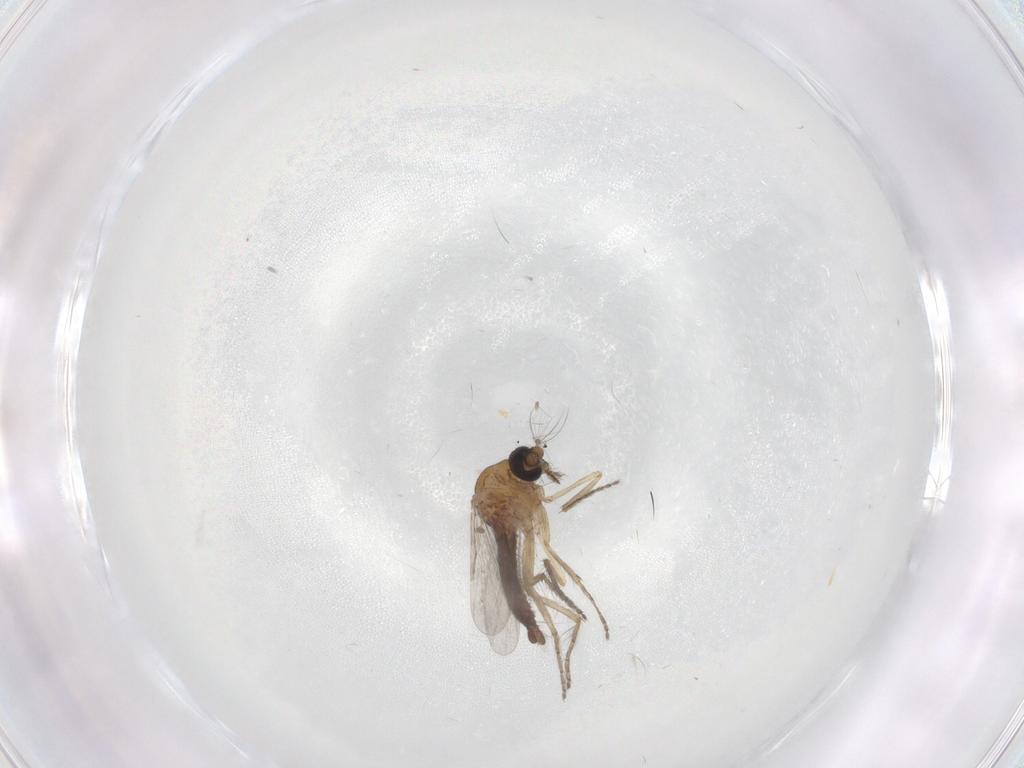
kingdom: Animalia
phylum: Arthropoda
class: Insecta
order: Diptera
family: Ceratopogonidae
